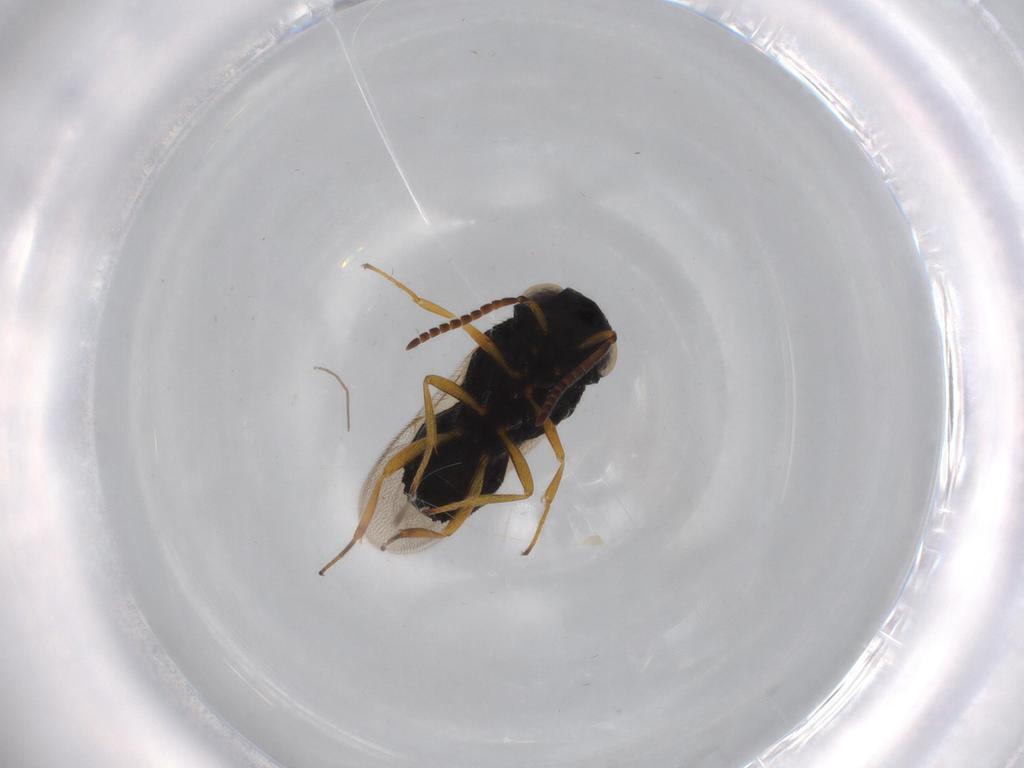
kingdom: Animalia
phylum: Arthropoda
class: Insecta
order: Hymenoptera
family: Scelionidae
